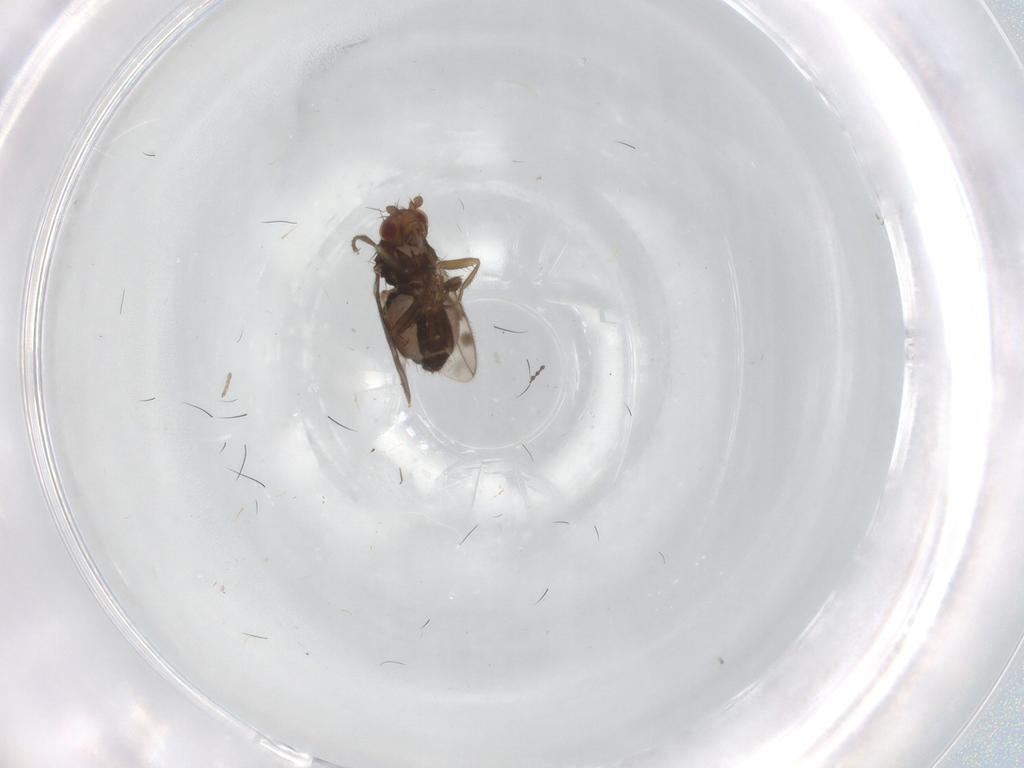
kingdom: Animalia
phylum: Arthropoda
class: Insecta
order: Diptera
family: Sphaeroceridae
